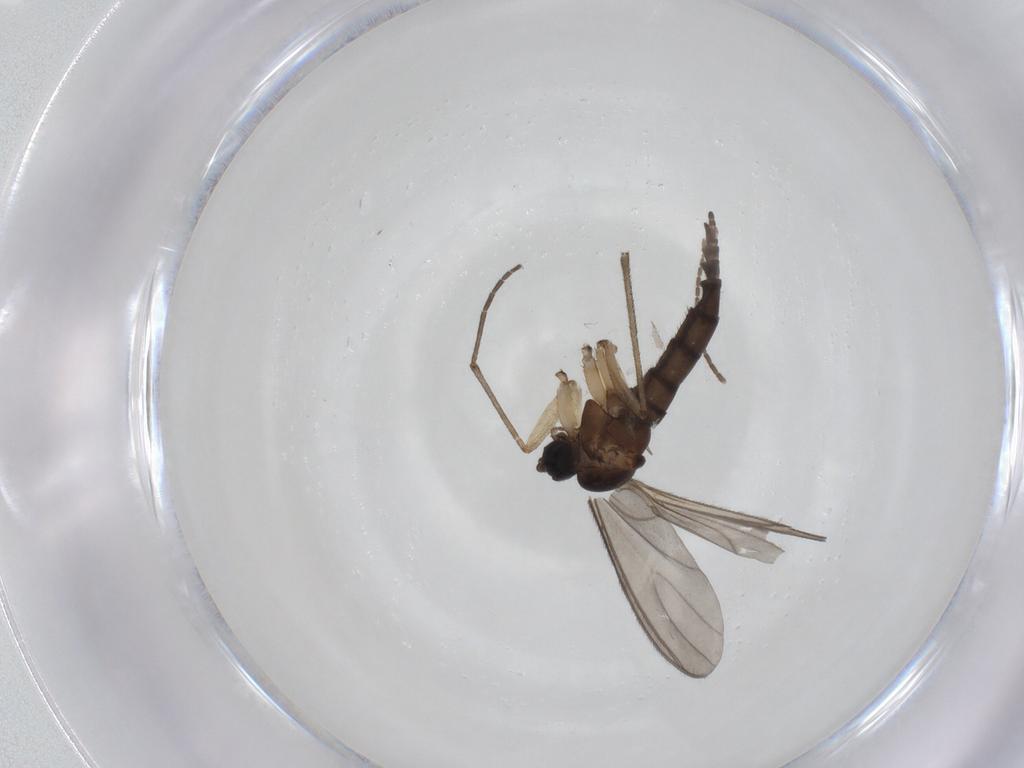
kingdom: Animalia
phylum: Arthropoda
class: Insecta
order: Diptera
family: Sciaridae
